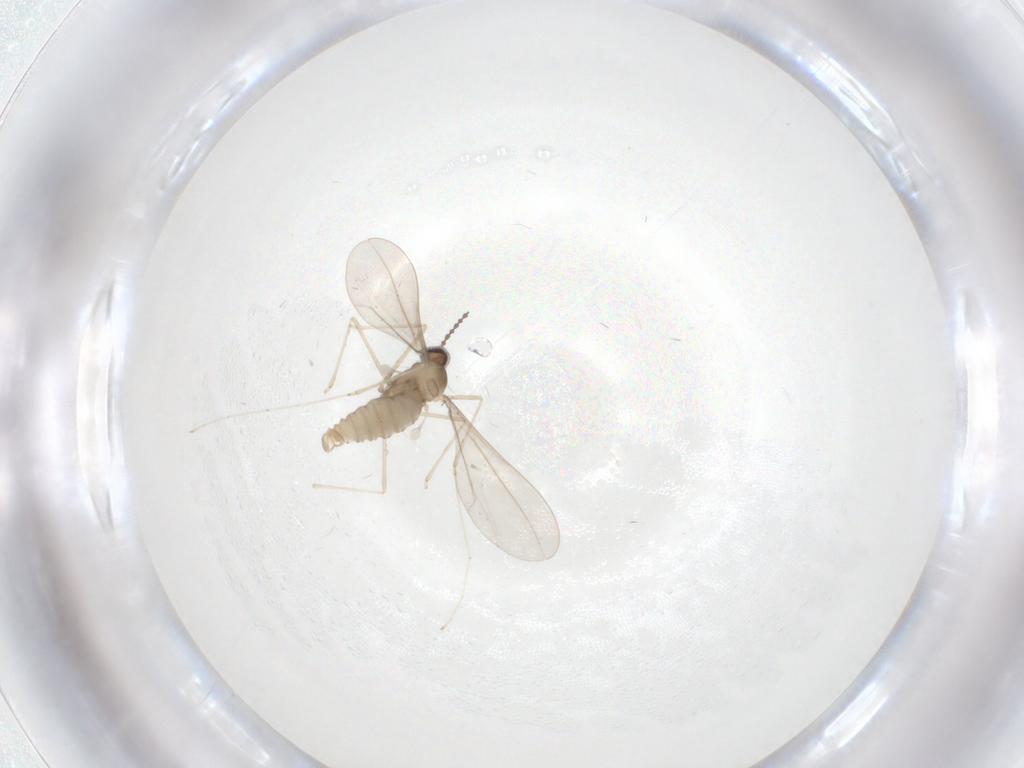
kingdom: Animalia
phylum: Arthropoda
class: Insecta
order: Diptera
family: Cecidomyiidae
